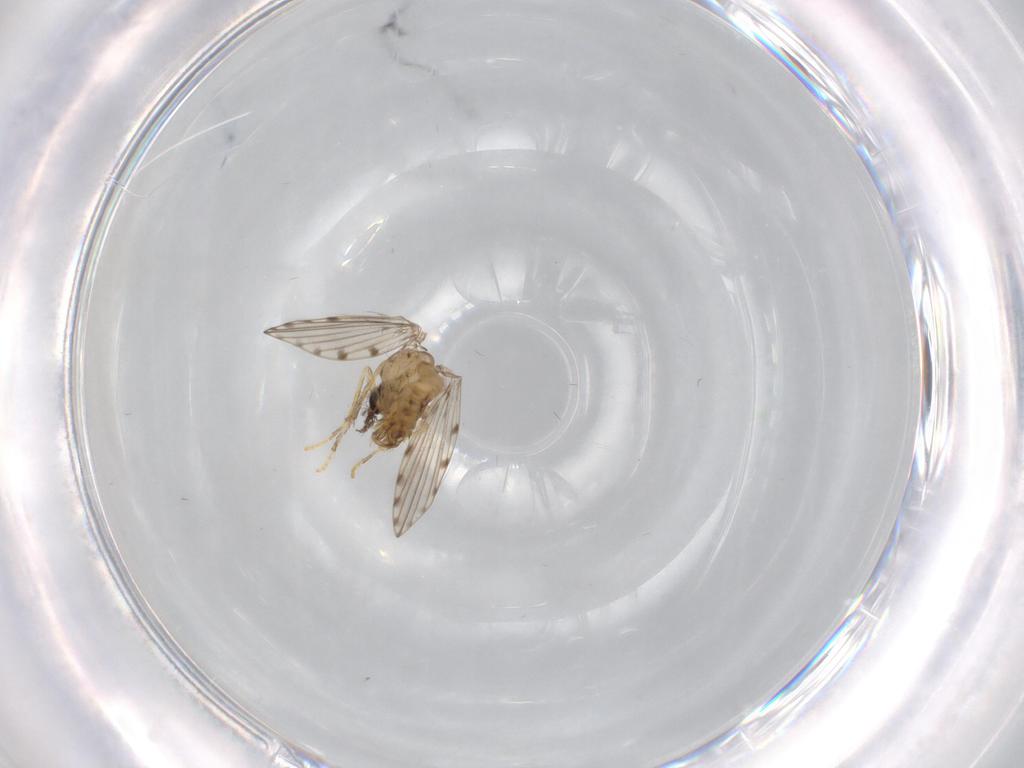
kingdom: Animalia
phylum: Arthropoda
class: Insecta
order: Diptera
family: Psychodidae
